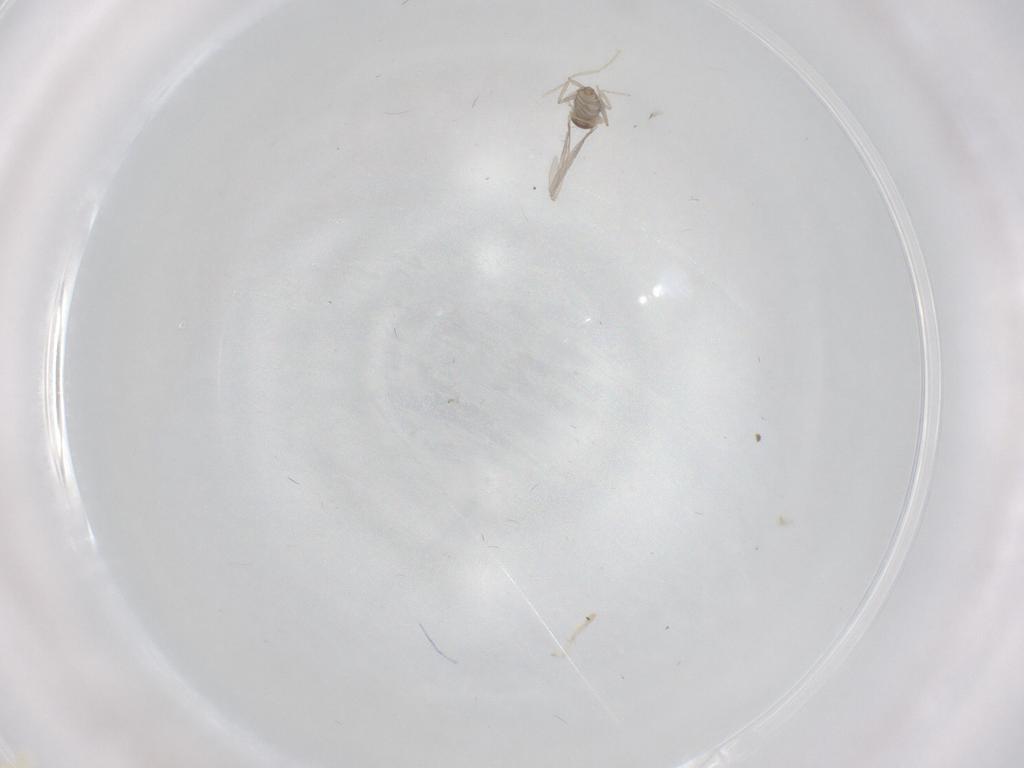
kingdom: Animalia
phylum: Arthropoda
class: Insecta
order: Diptera
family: Cecidomyiidae
